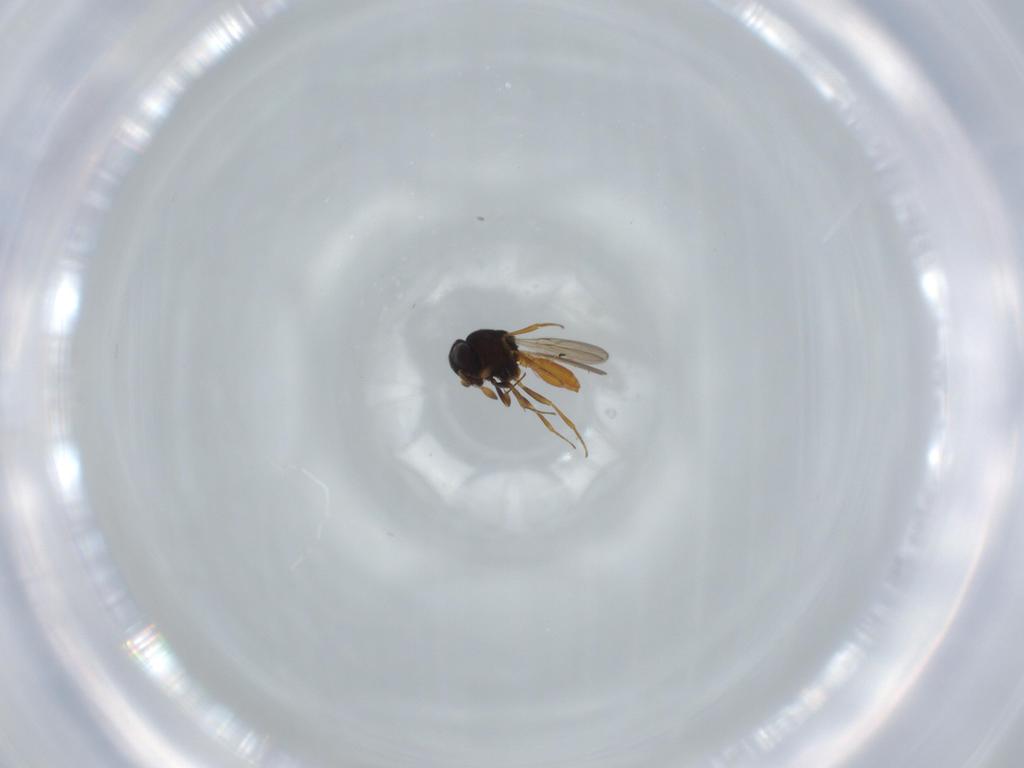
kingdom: Animalia
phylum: Arthropoda
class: Insecta
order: Hymenoptera
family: Scelionidae
